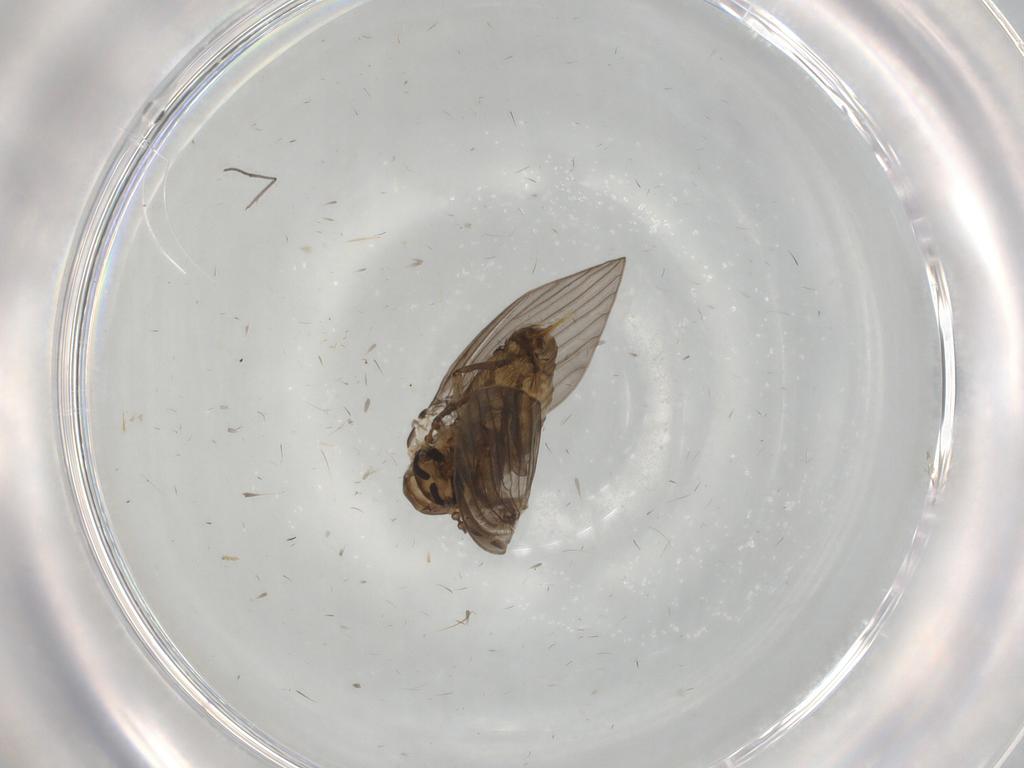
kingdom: Animalia
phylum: Arthropoda
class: Insecta
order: Diptera
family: Psychodidae
